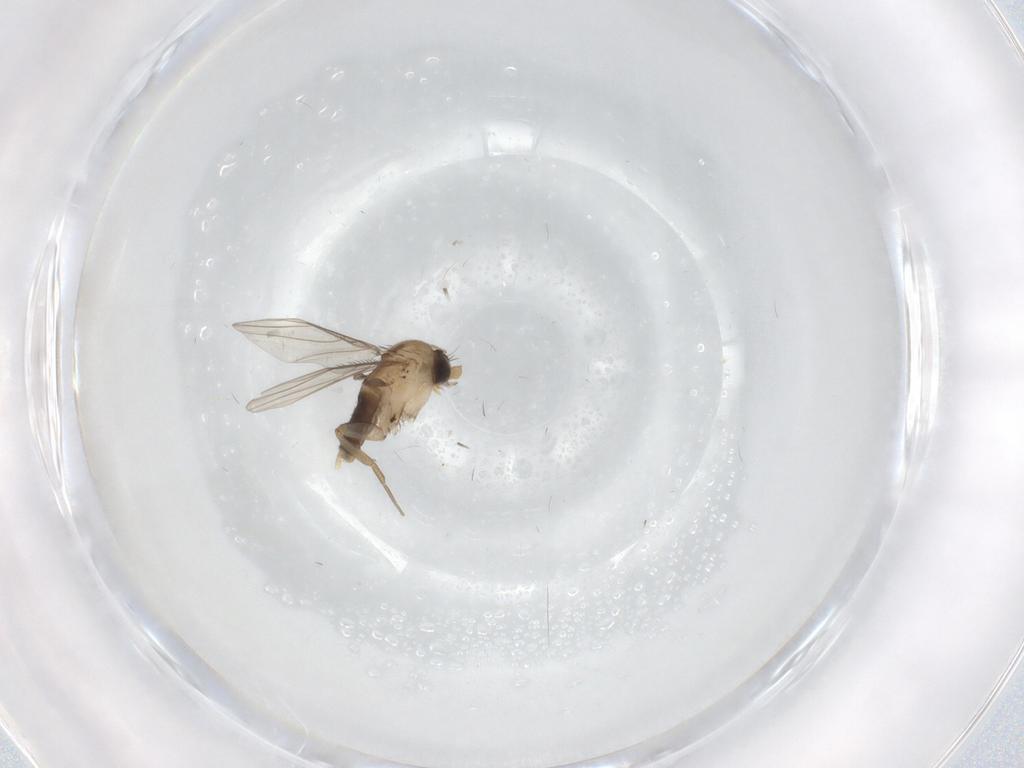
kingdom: Animalia
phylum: Arthropoda
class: Insecta
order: Diptera
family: Phoridae
